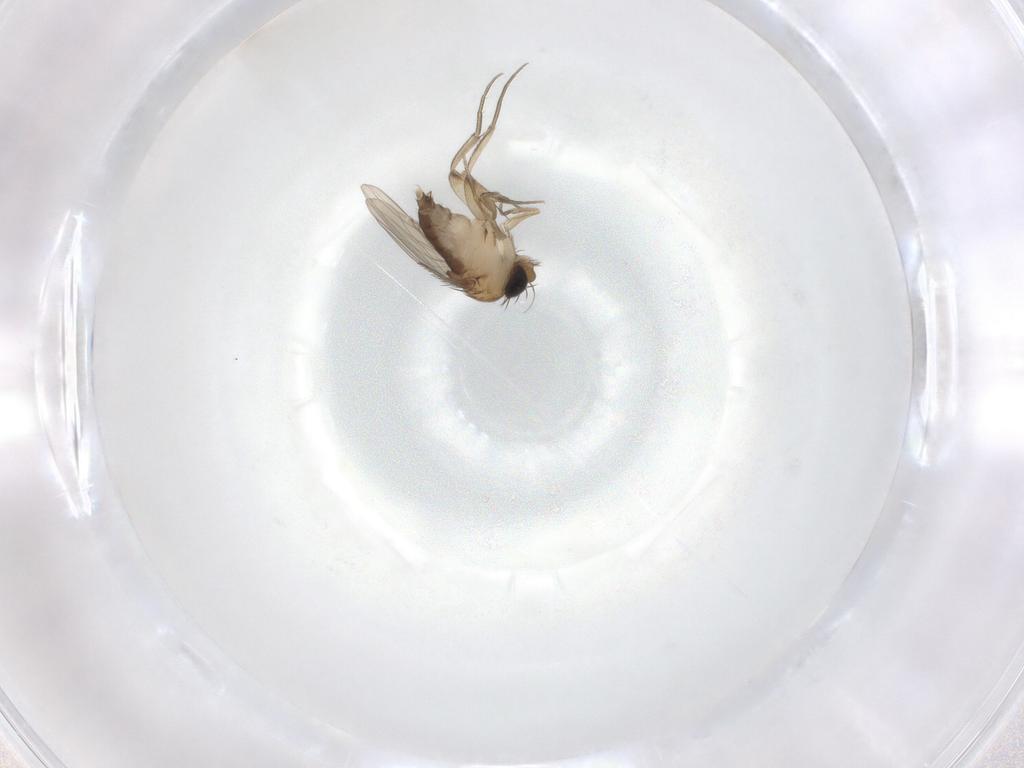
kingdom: Animalia
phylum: Arthropoda
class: Insecta
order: Diptera
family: Phoridae
